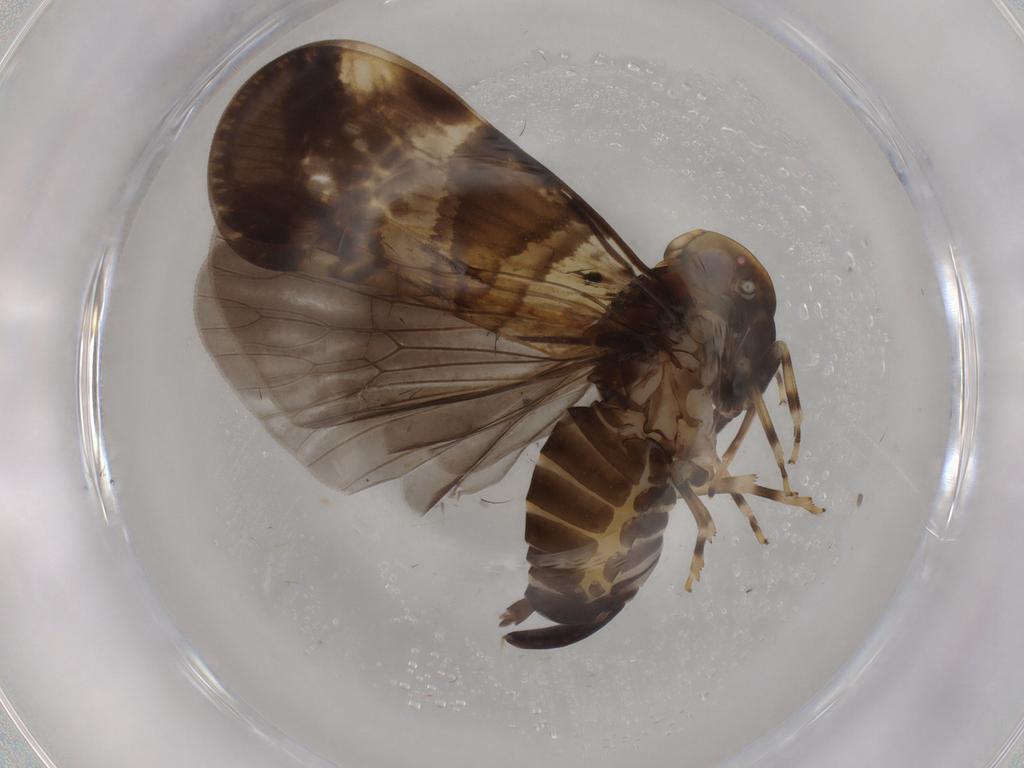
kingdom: Animalia
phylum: Arthropoda
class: Insecta
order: Hemiptera
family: Cixiidae
